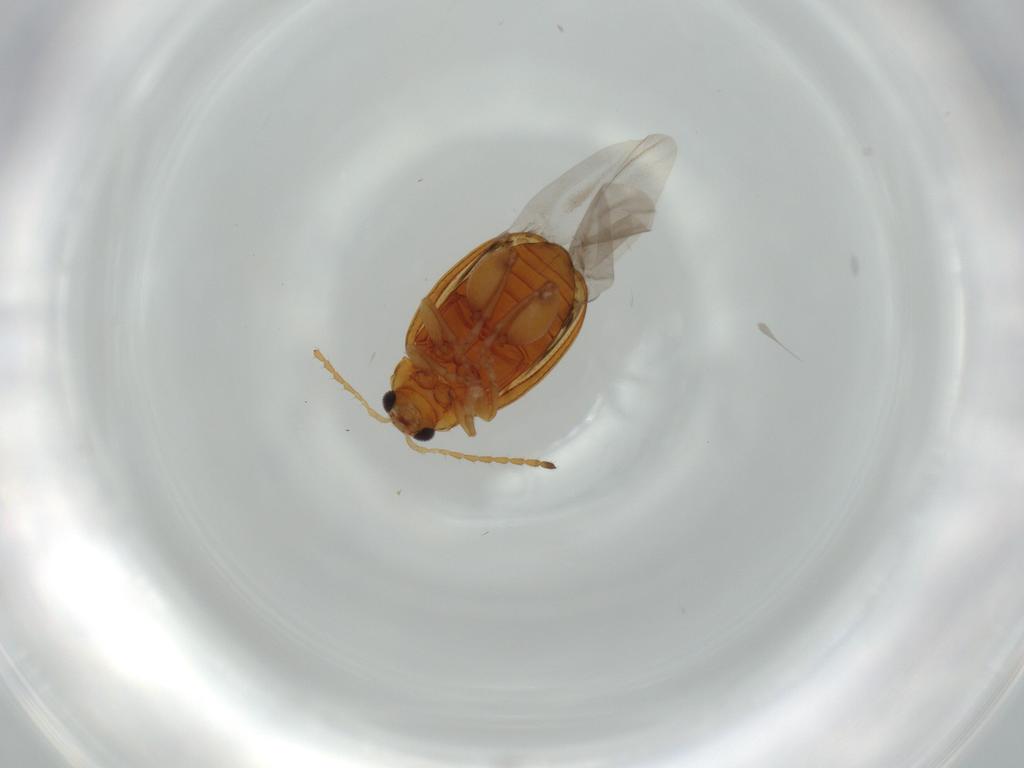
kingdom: Animalia
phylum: Arthropoda
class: Insecta
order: Coleoptera
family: Chrysomelidae
